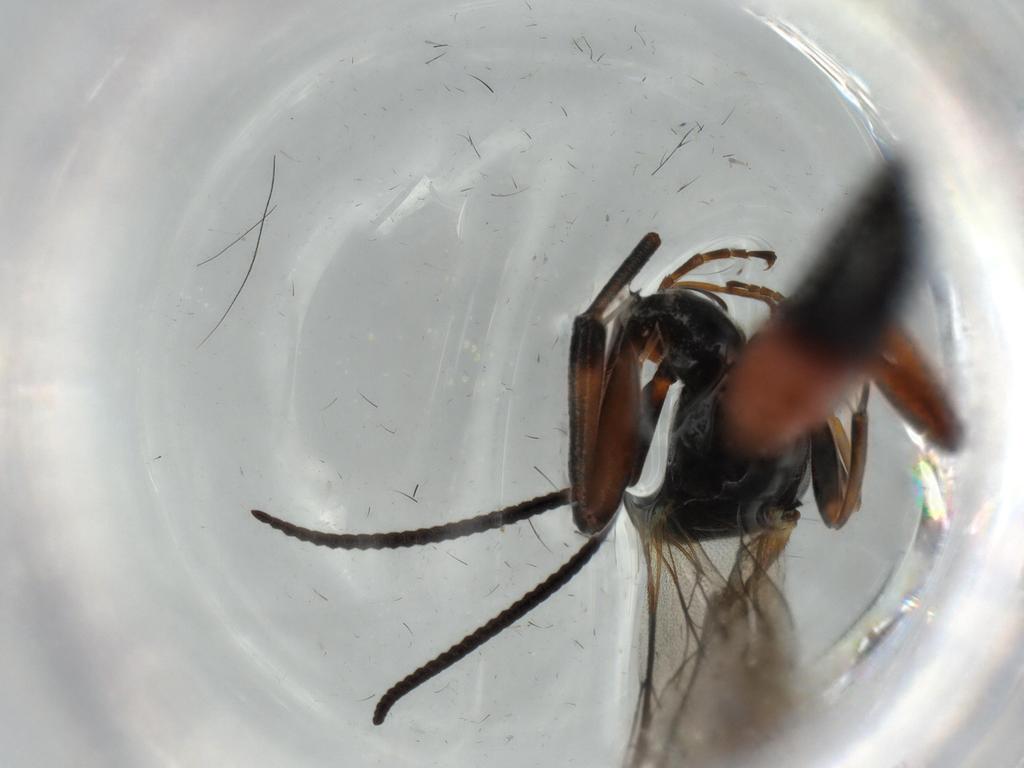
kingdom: Animalia
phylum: Arthropoda
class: Insecta
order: Hymenoptera
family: Ichneumonidae
